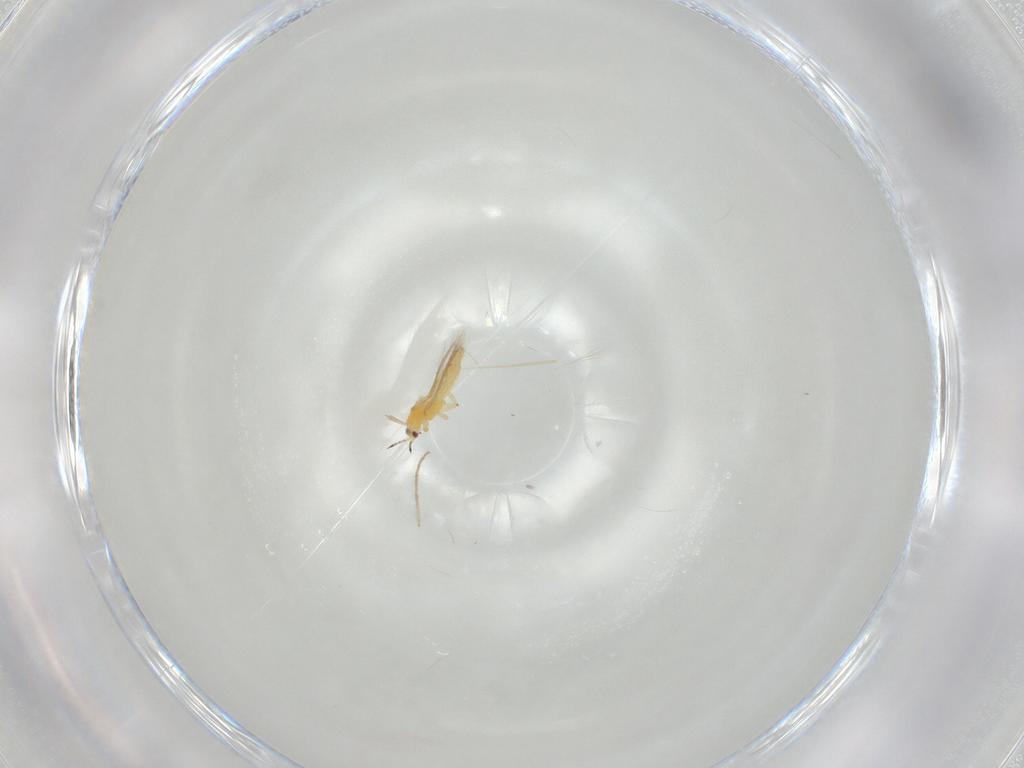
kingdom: Animalia
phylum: Arthropoda
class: Insecta
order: Thysanoptera
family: Thripidae
